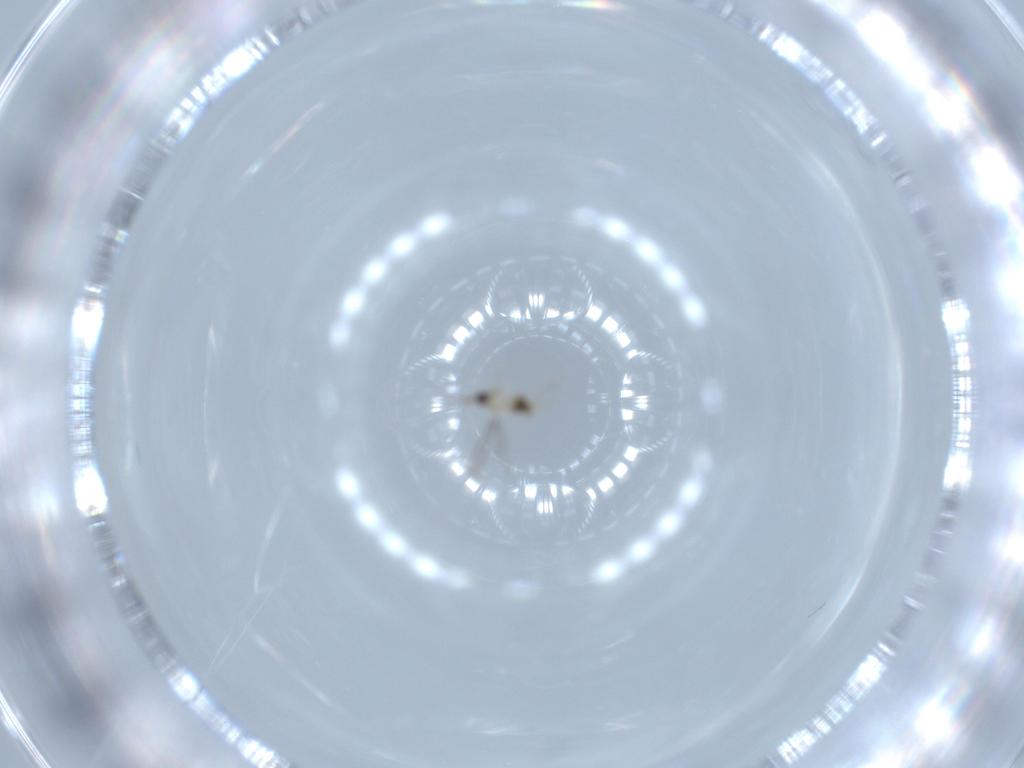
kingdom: Animalia
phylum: Arthropoda
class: Insecta
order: Hymenoptera
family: Mymaridae
